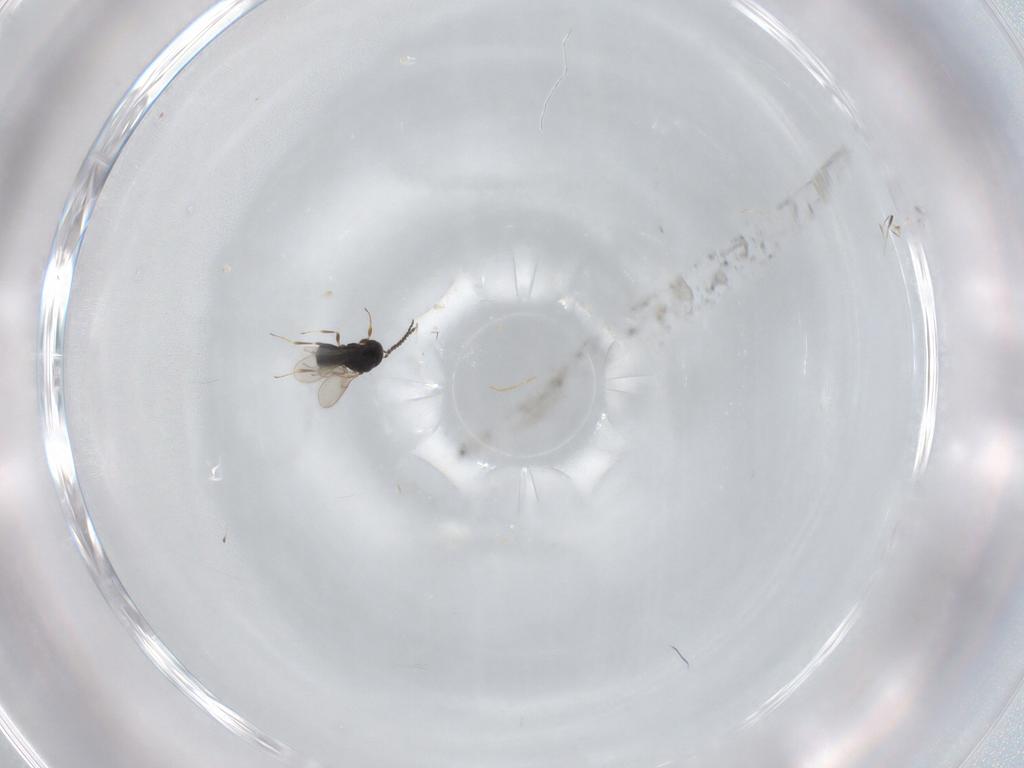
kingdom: Animalia
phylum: Arthropoda
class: Insecta
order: Hymenoptera
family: Scelionidae
